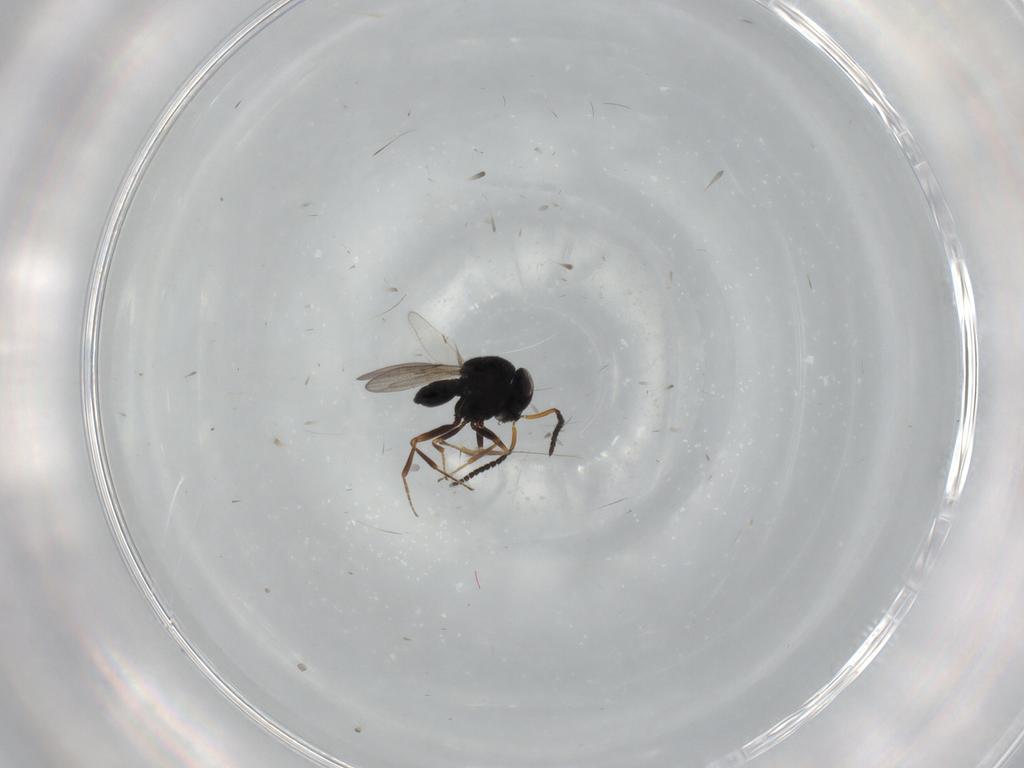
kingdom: Animalia
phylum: Arthropoda
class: Insecta
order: Hymenoptera
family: Scelionidae
